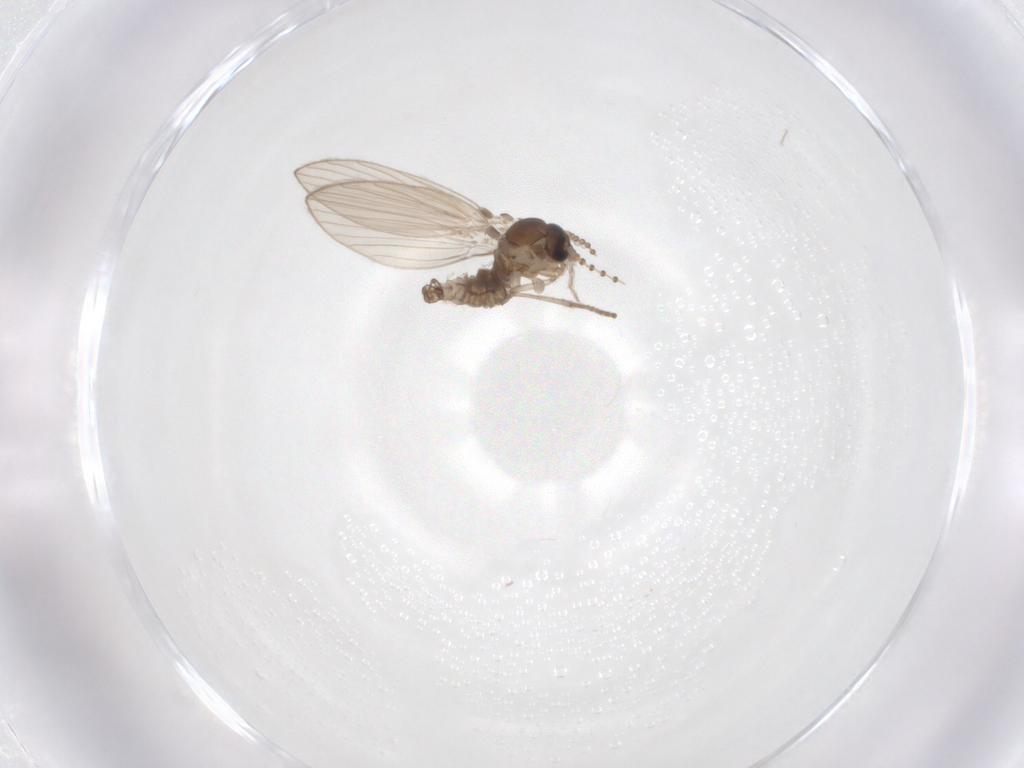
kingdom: Animalia
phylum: Arthropoda
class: Insecta
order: Diptera
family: Psychodidae
